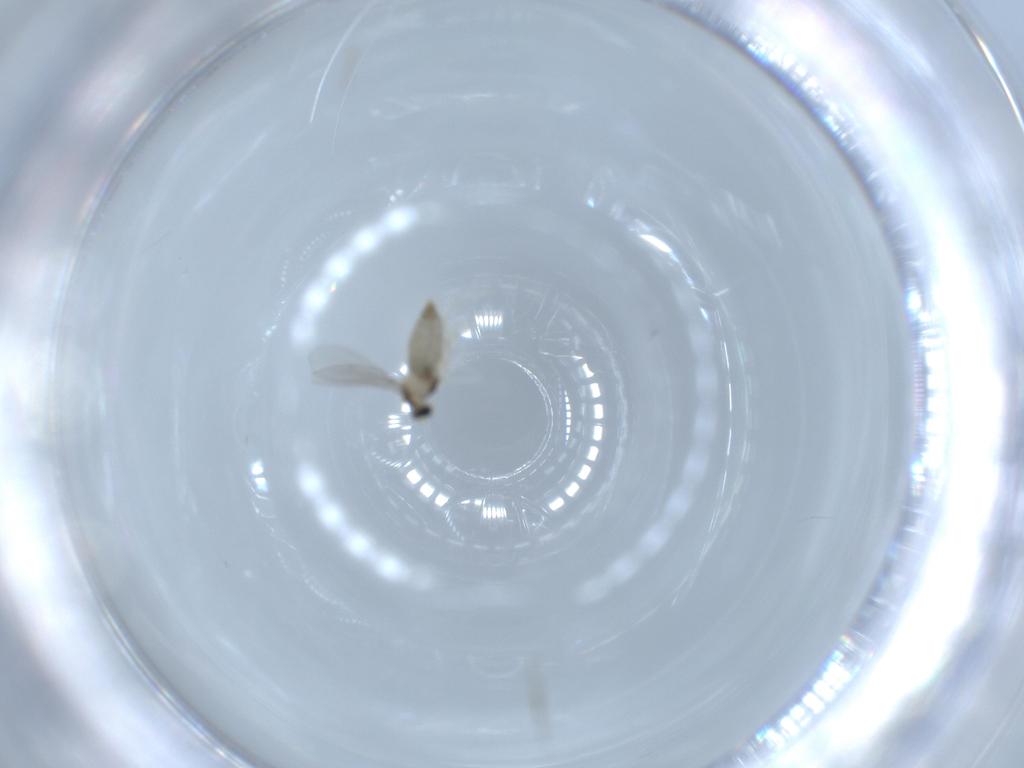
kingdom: Animalia
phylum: Arthropoda
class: Insecta
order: Diptera
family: Cecidomyiidae
